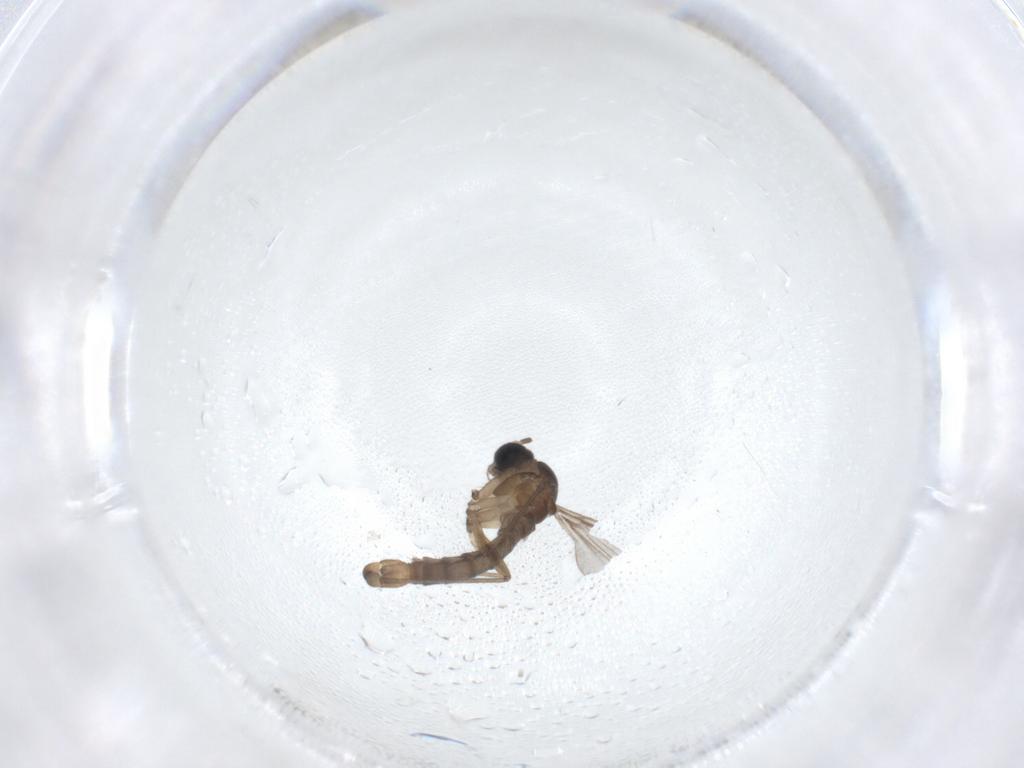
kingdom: Animalia
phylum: Arthropoda
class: Insecta
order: Diptera
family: Sciaridae
